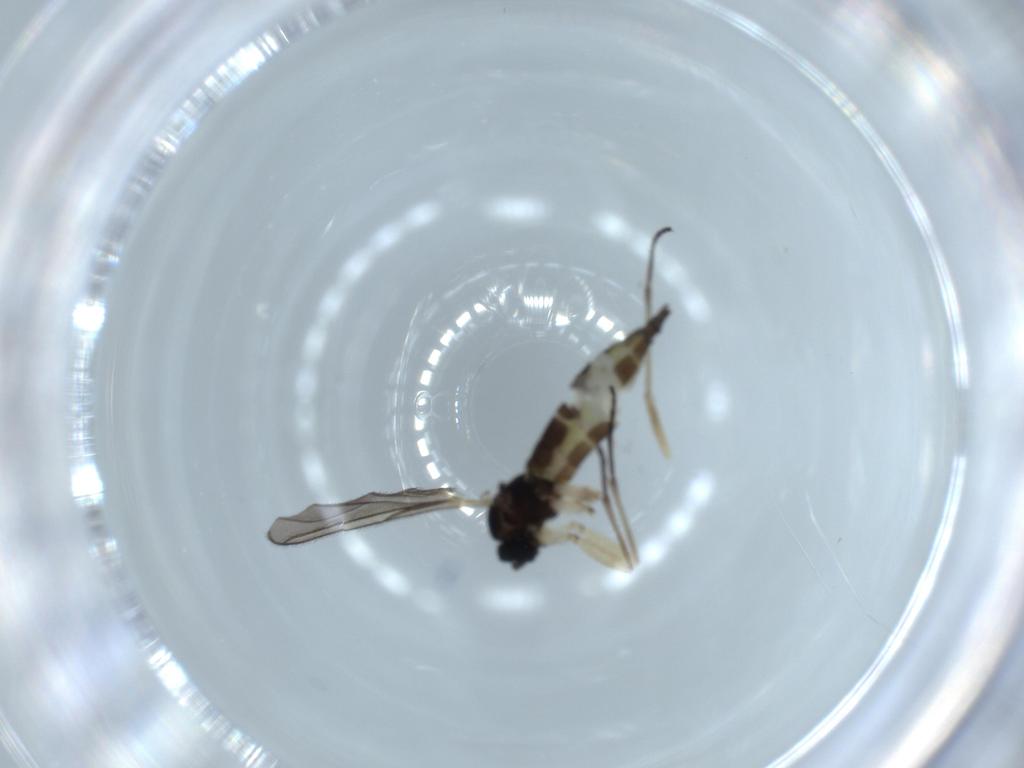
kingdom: Animalia
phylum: Arthropoda
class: Insecta
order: Diptera
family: Sciaridae
